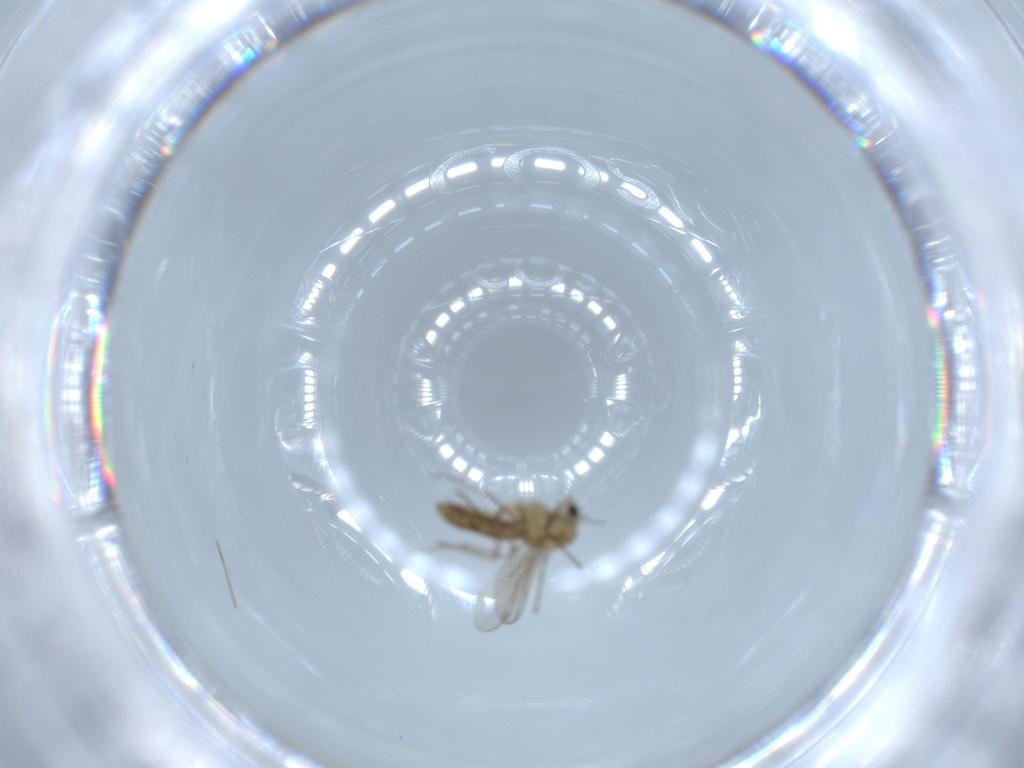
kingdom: Animalia
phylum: Arthropoda
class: Insecta
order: Diptera
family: Chironomidae
